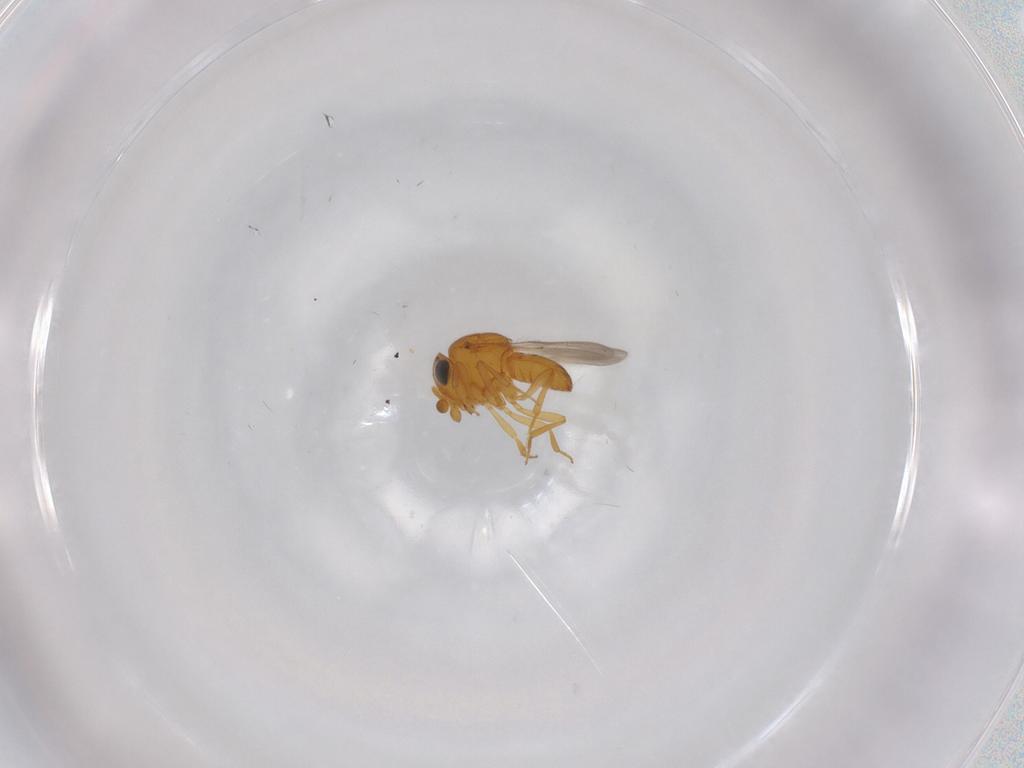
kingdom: Animalia
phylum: Arthropoda
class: Insecta
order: Hymenoptera
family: Scelionidae
